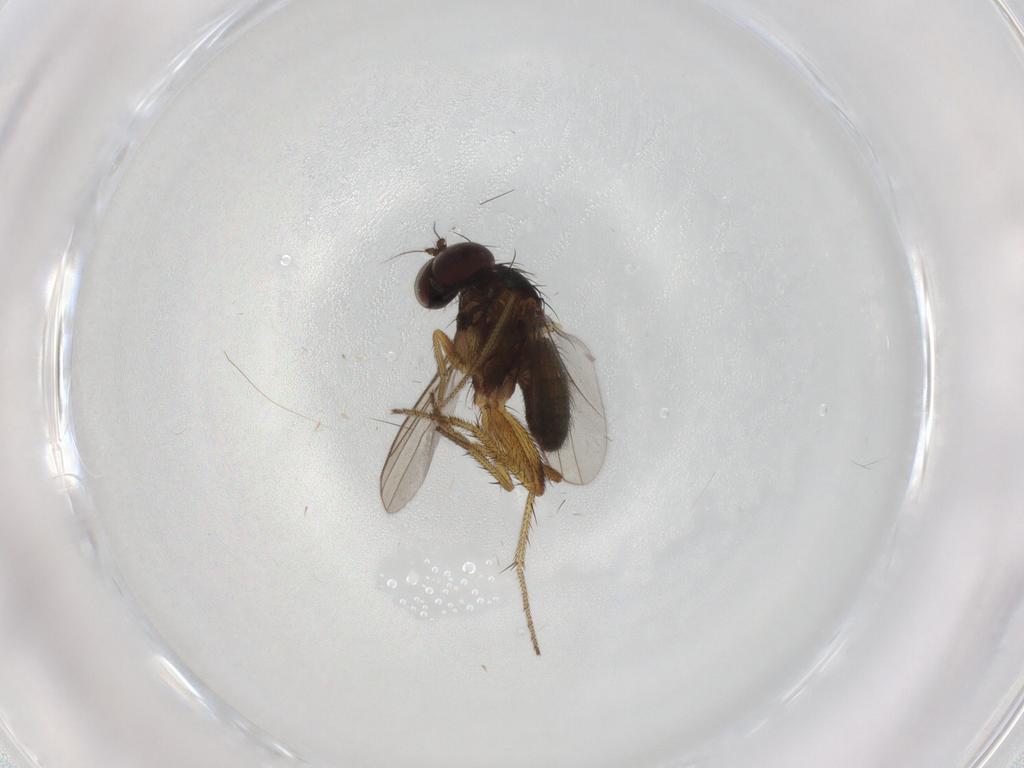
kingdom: Animalia
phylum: Arthropoda
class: Insecta
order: Diptera
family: Dolichopodidae
